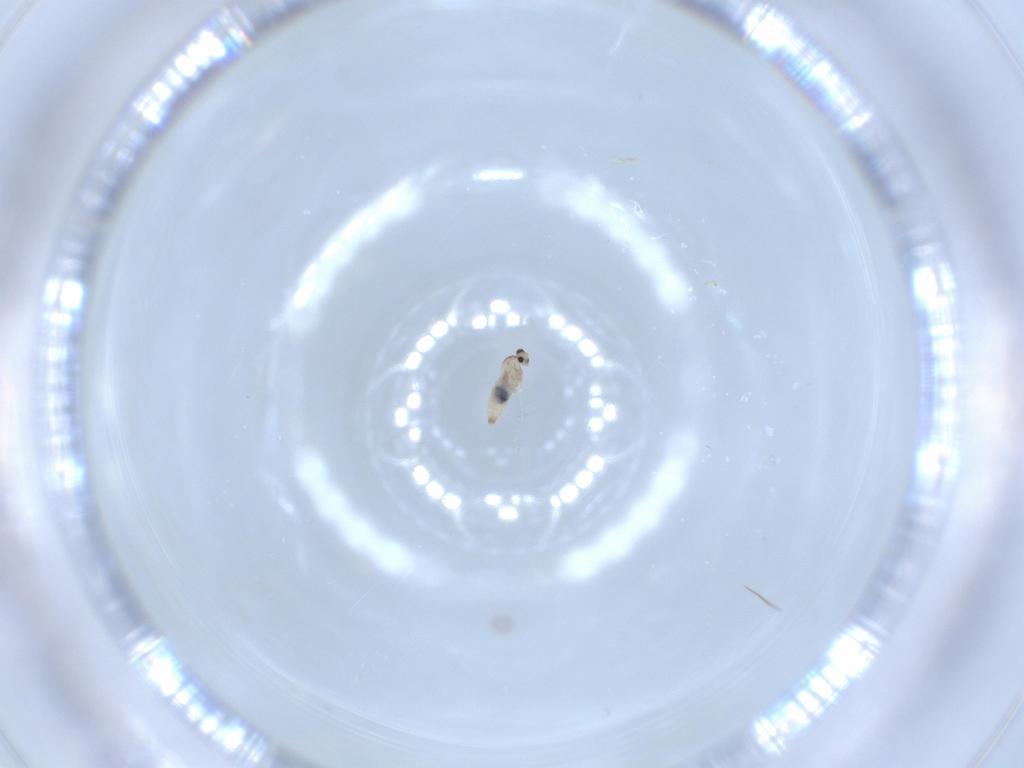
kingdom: Animalia
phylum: Arthropoda
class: Insecta
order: Diptera
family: Cecidomyiidae
